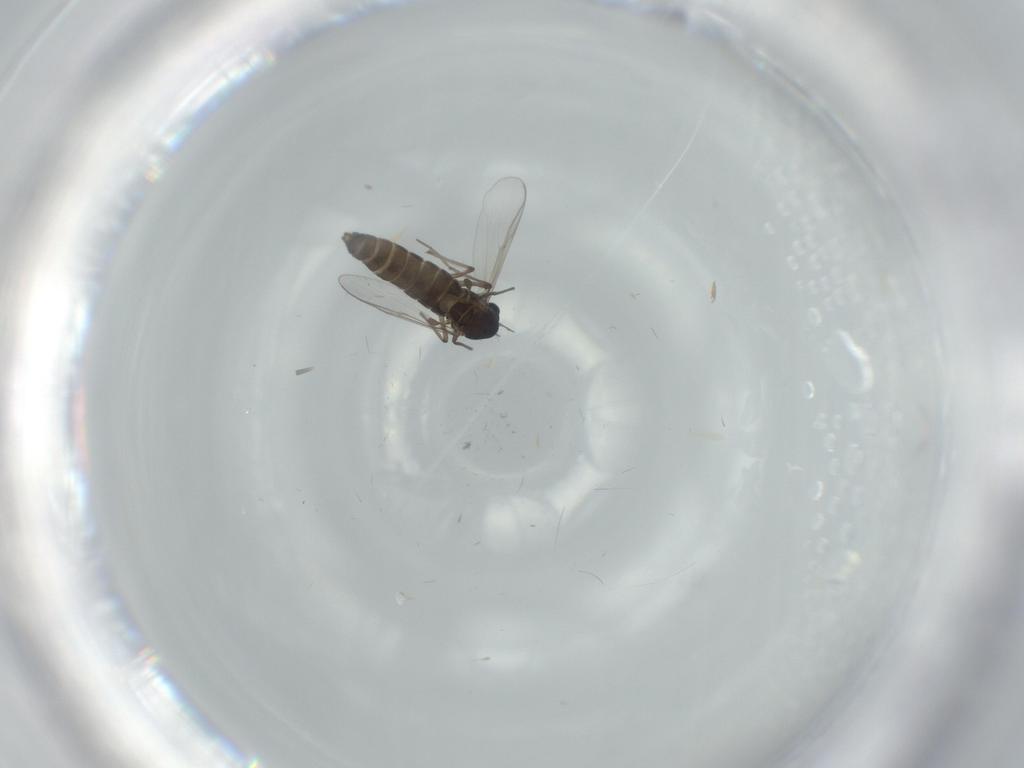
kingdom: Animalia
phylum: Arthropoda
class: Insecta
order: Diptera
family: Chironomidae
